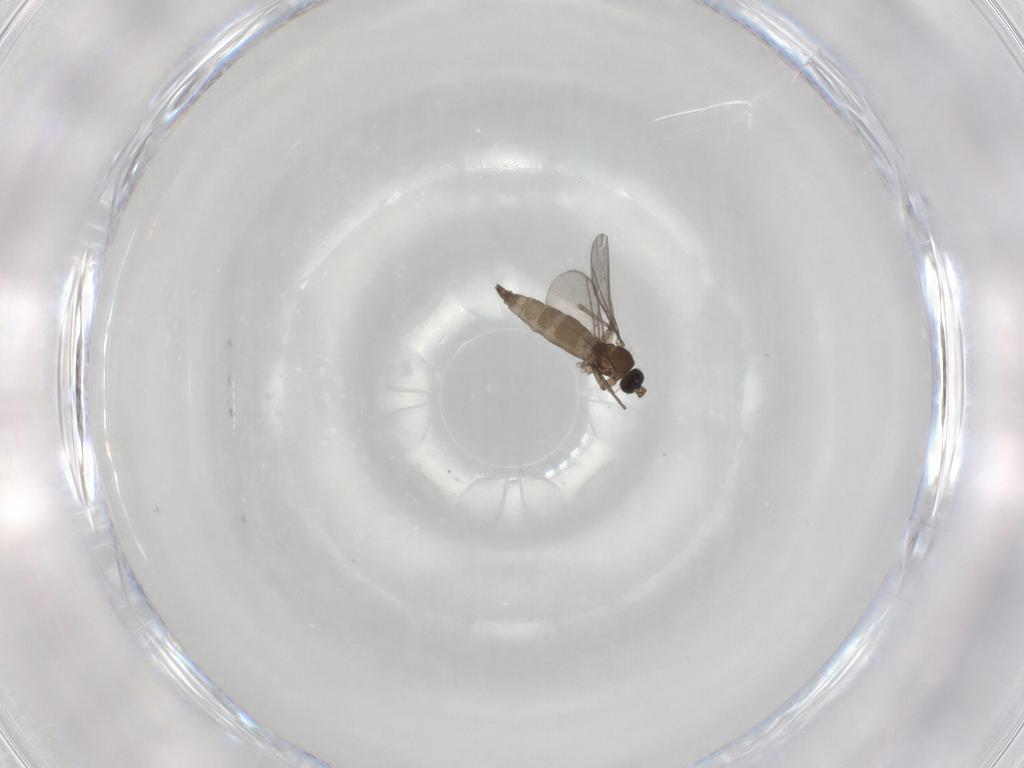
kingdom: Animalia
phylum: Arthropoda
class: Insecta
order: Diptera
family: Sciaridae
